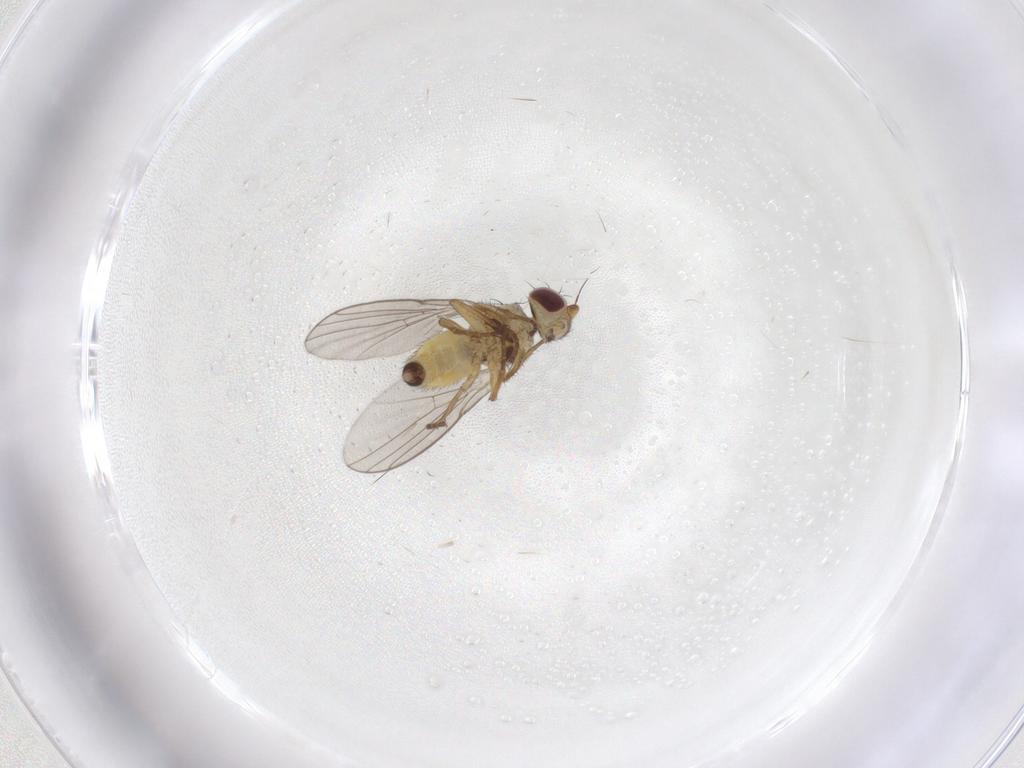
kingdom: Animalia
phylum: Arthropoda
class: Insecta
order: Diptera
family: Agromyzidae
